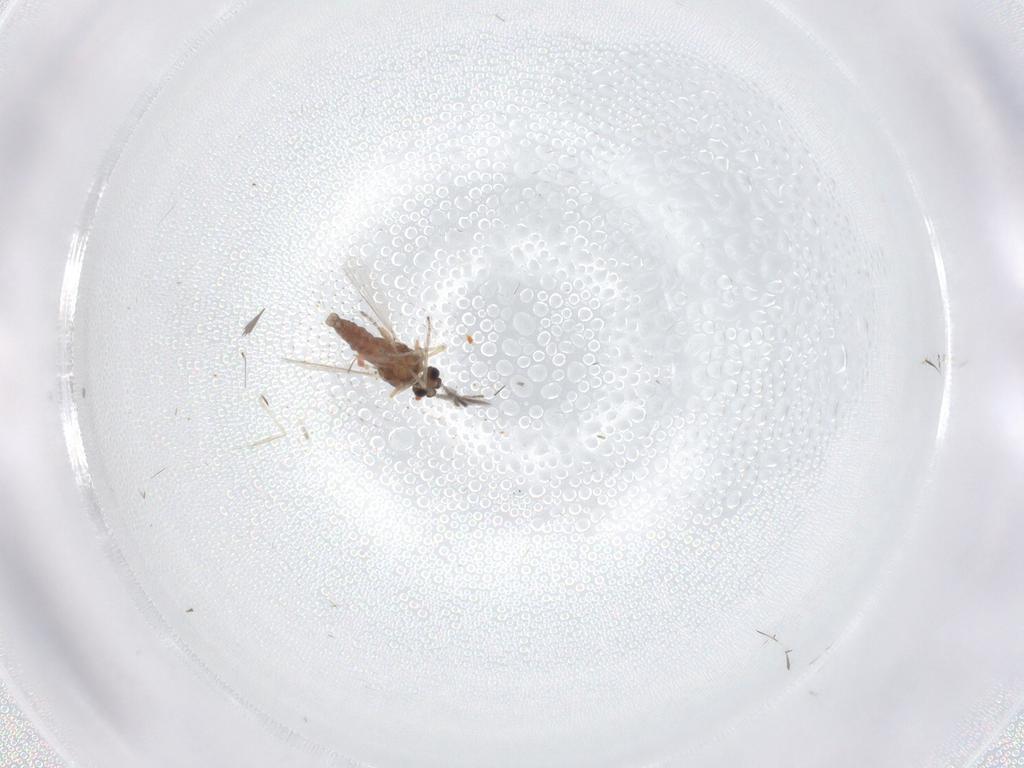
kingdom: Animalia
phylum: Arthropoda
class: Insecta
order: Diptera
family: Ceratopogonidae
